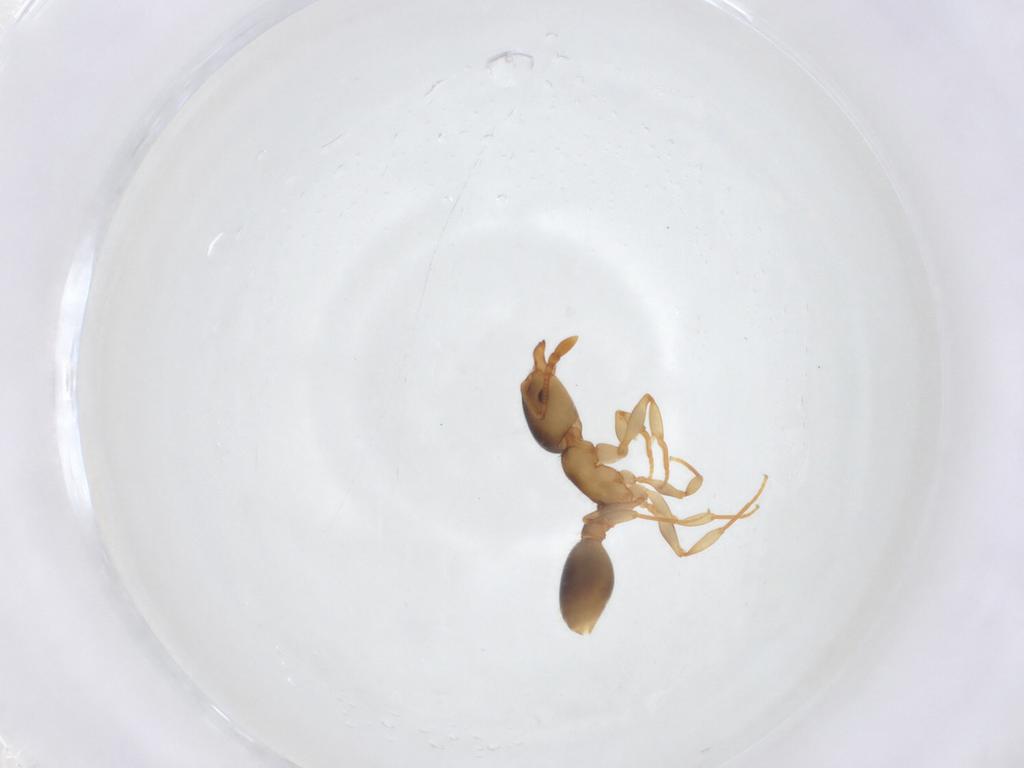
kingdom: Animalia
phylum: Arthropoda
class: Insecta
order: Hymenoptera
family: Formicidae
